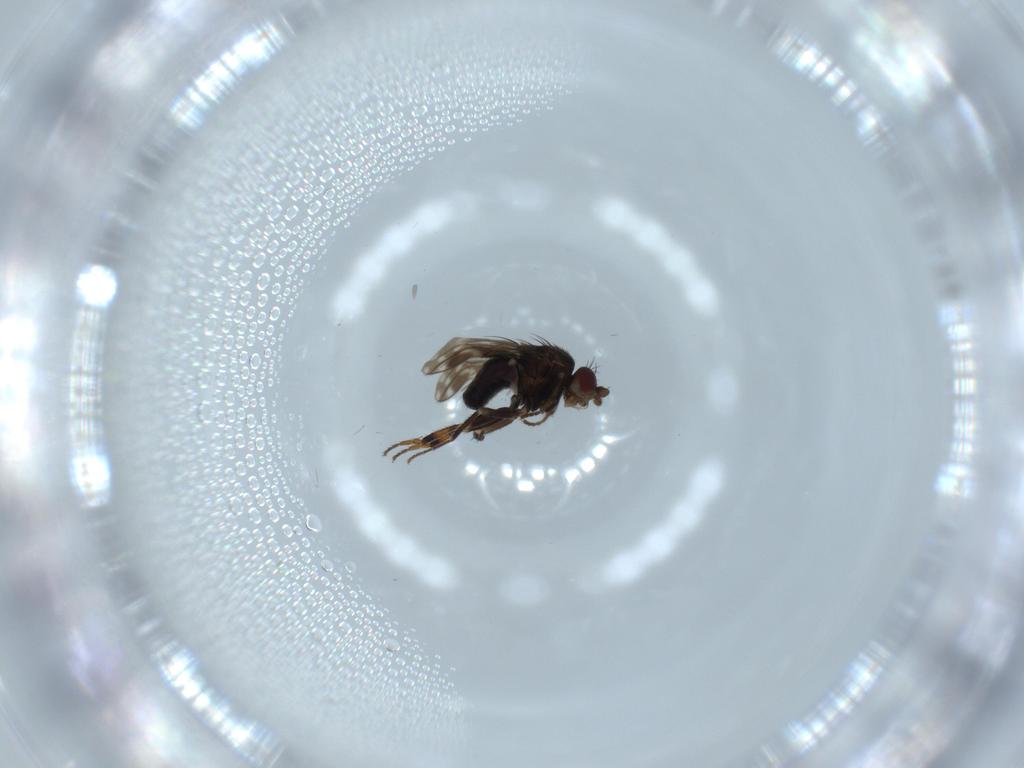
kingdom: Animalia
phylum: Arthropoda
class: Insecta
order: Diptera
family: Sphaeroceridae
